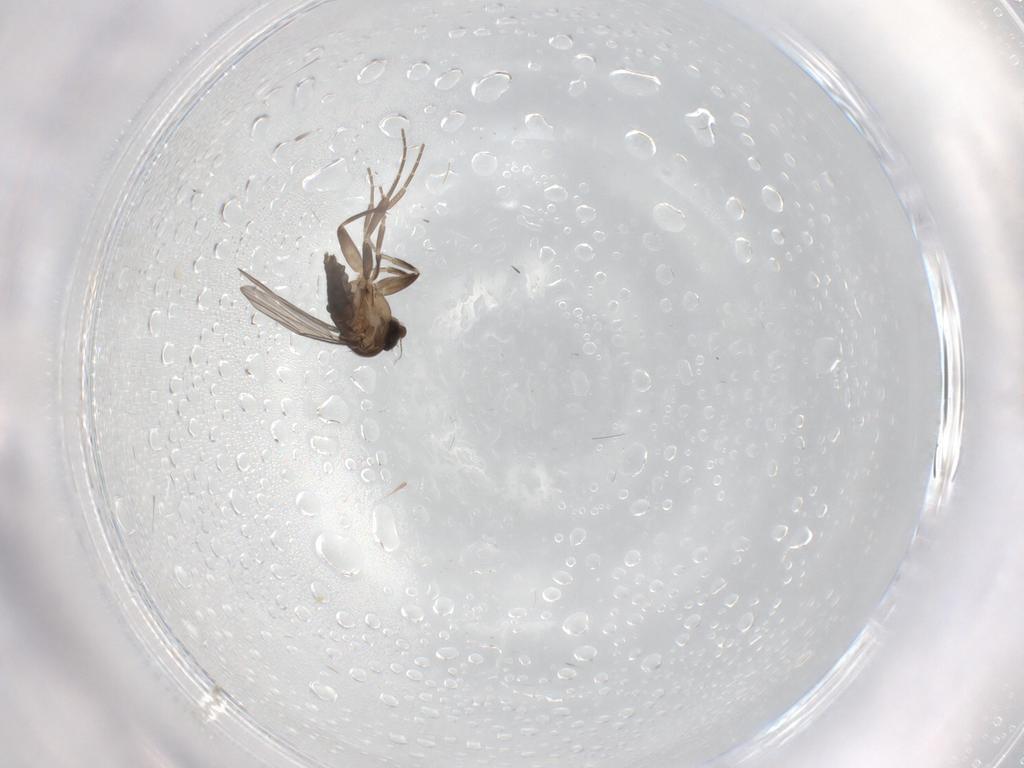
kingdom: Animalia
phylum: Arthropoda
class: Insecta
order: Diptera
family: Phoridae
